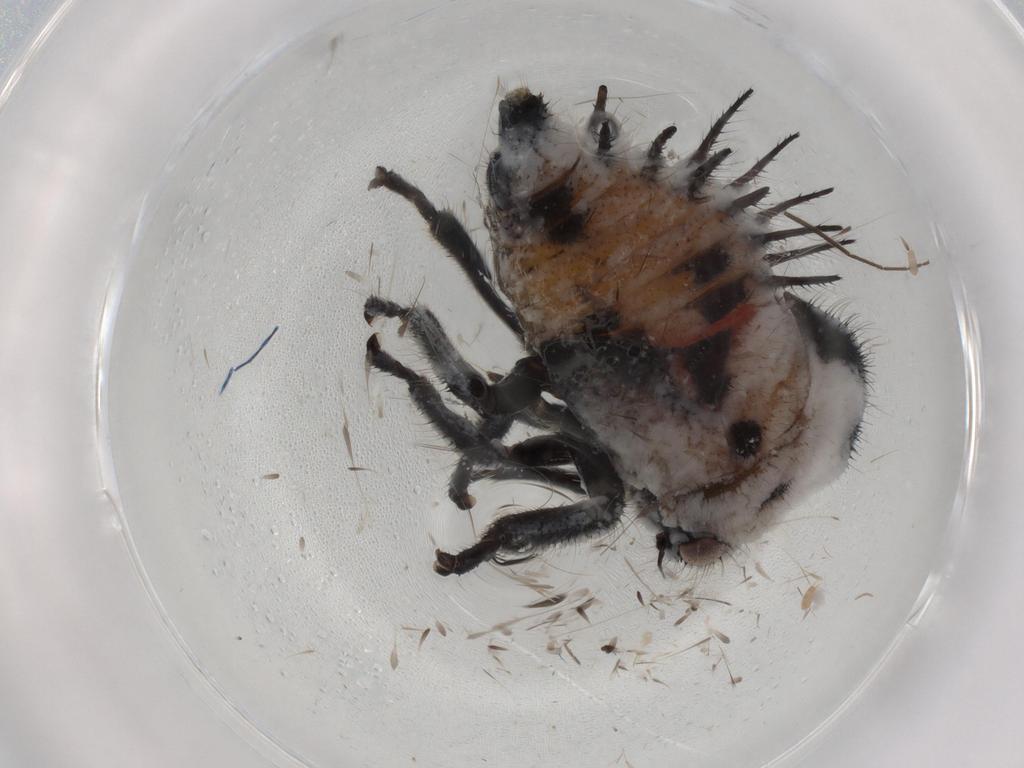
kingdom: Animalia
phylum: Arthropoda
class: Insecta
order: Hemiptera
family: Membracidae
